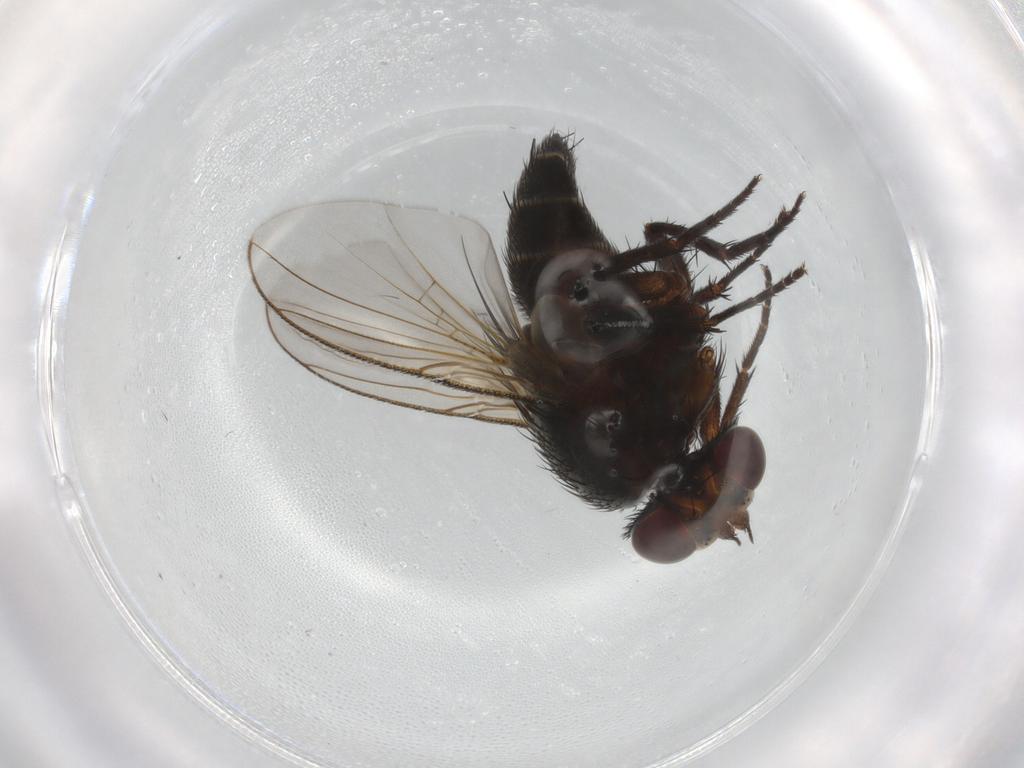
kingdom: Animalia
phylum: Arthropoda
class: Insecta
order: Diptera
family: Tachinidae
